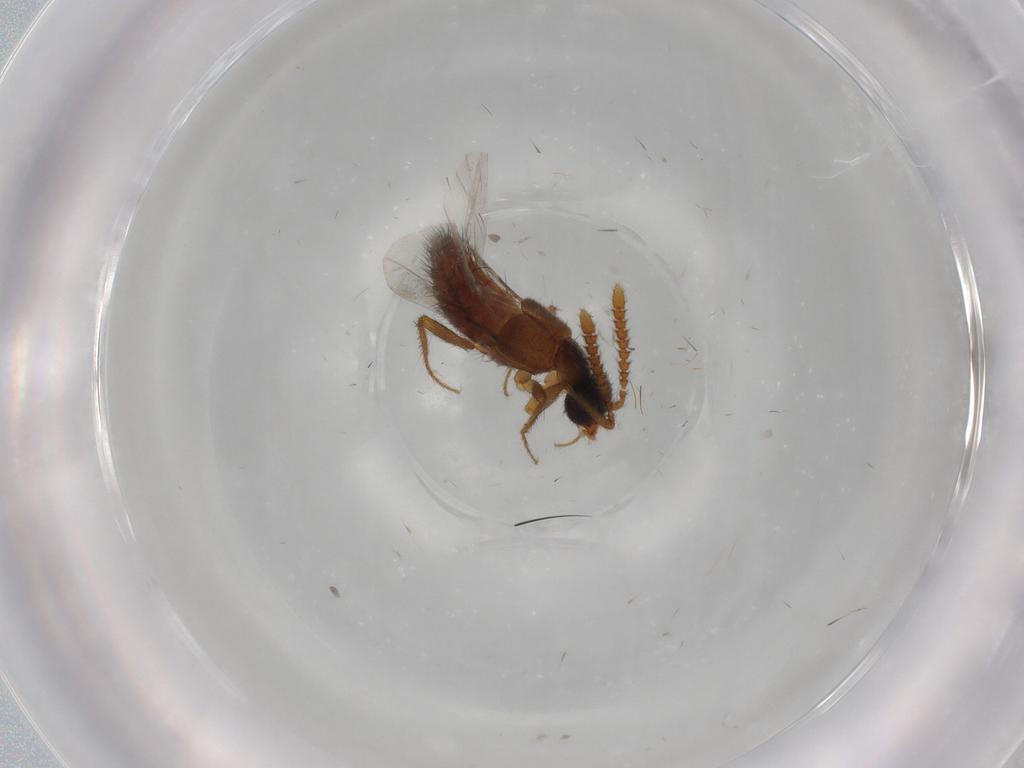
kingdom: Animalia
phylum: Arthropoda
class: Insecta
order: Coleoptera
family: Staphylinidae
